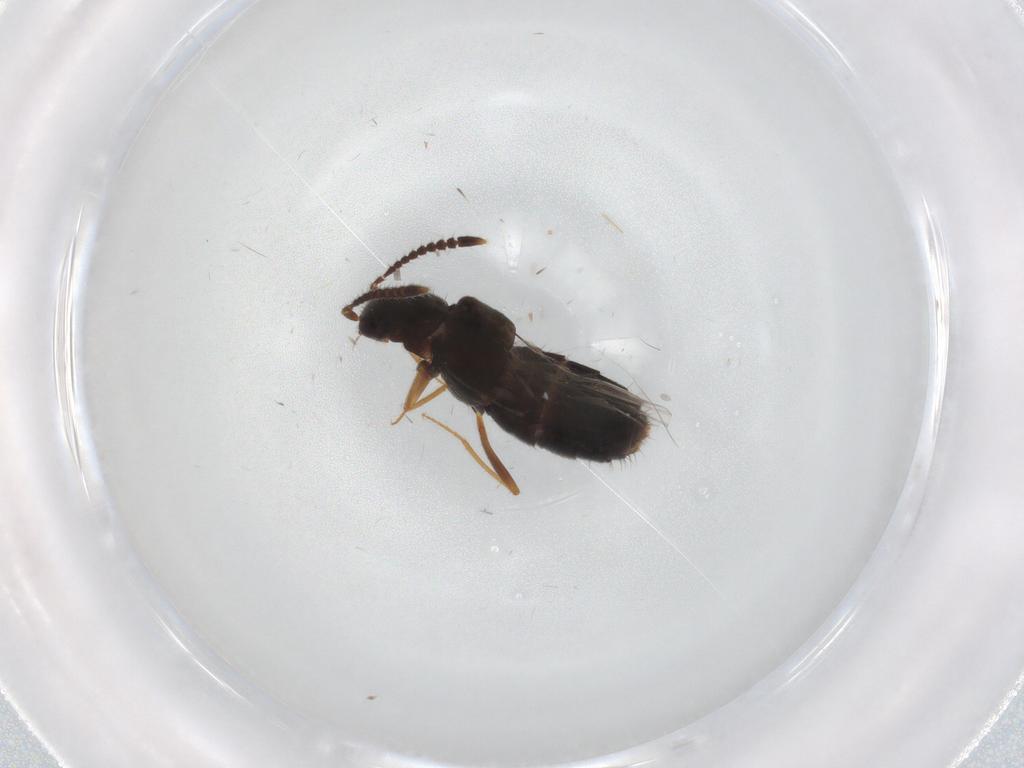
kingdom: Animalia
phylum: Arthropoda
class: Insecta
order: Coleoptera
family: Staphylinidae
